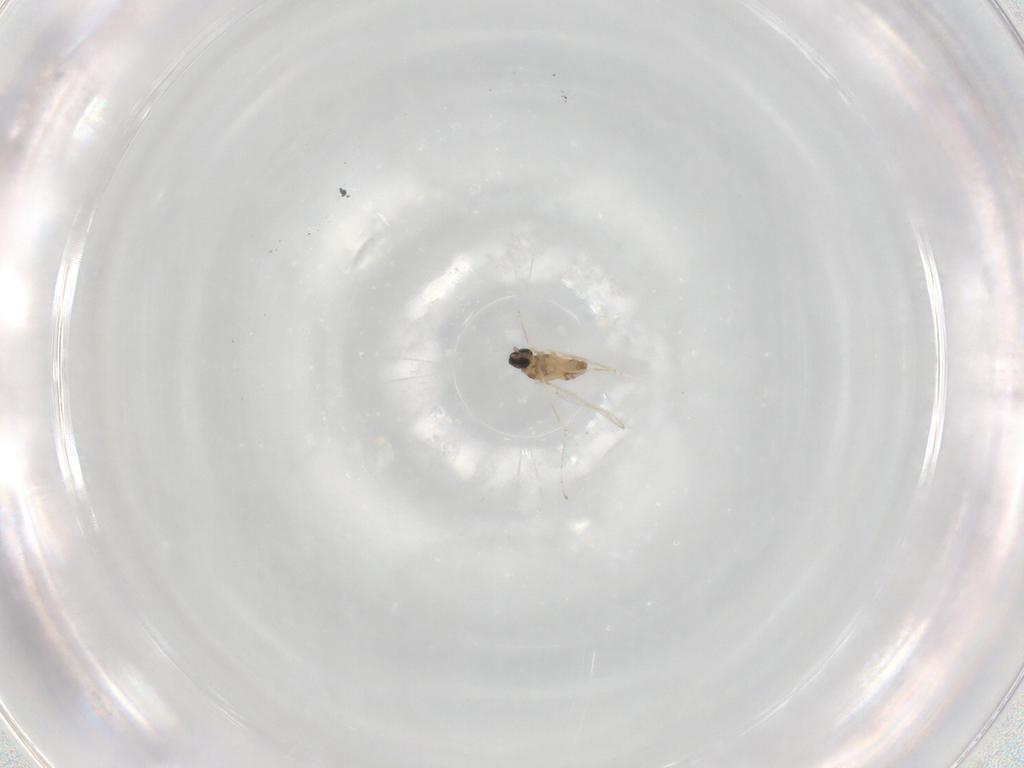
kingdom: Animalia
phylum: Arthropoda
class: Insecta
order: Diptera
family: Cecidomyiidae
